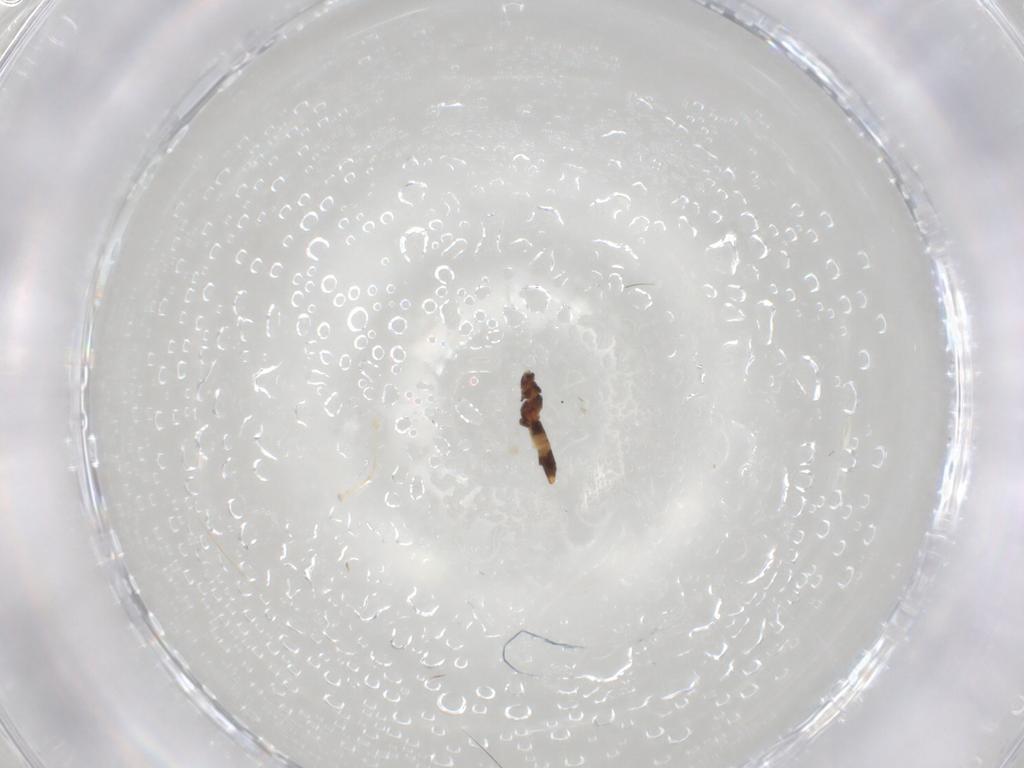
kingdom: Animalia
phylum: Arthropoda
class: Insecta
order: Thysanoptera
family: Thripidae
